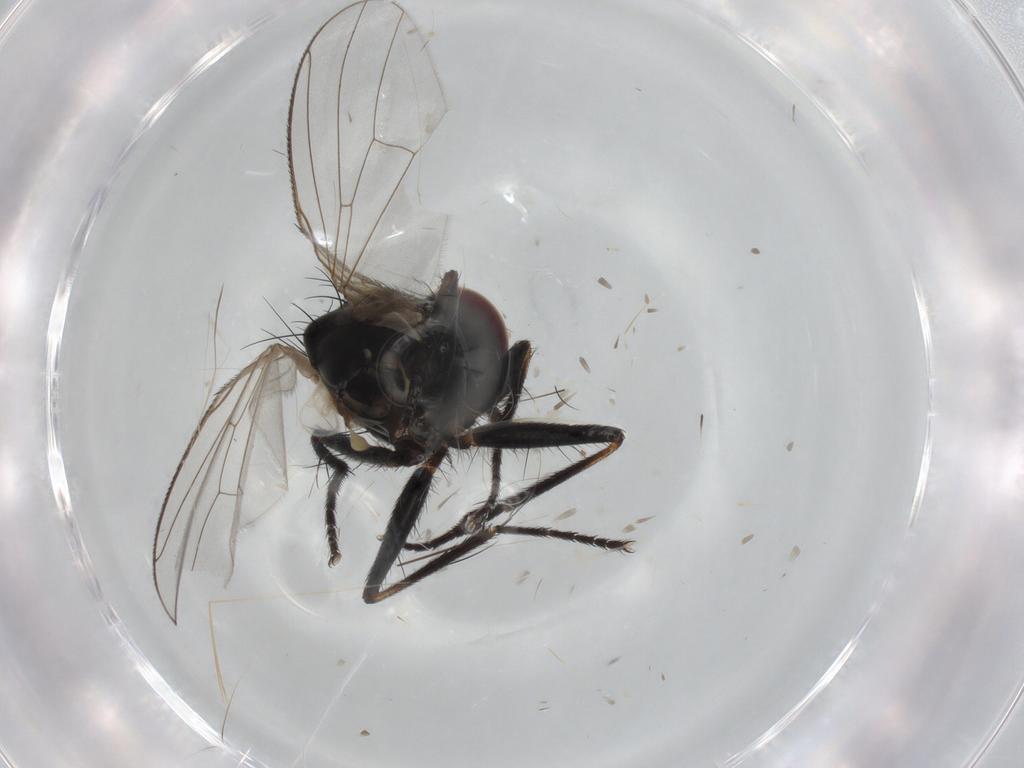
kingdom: Animalia
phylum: Arthropoda
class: Insecta
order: Diptera
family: Muscidae
